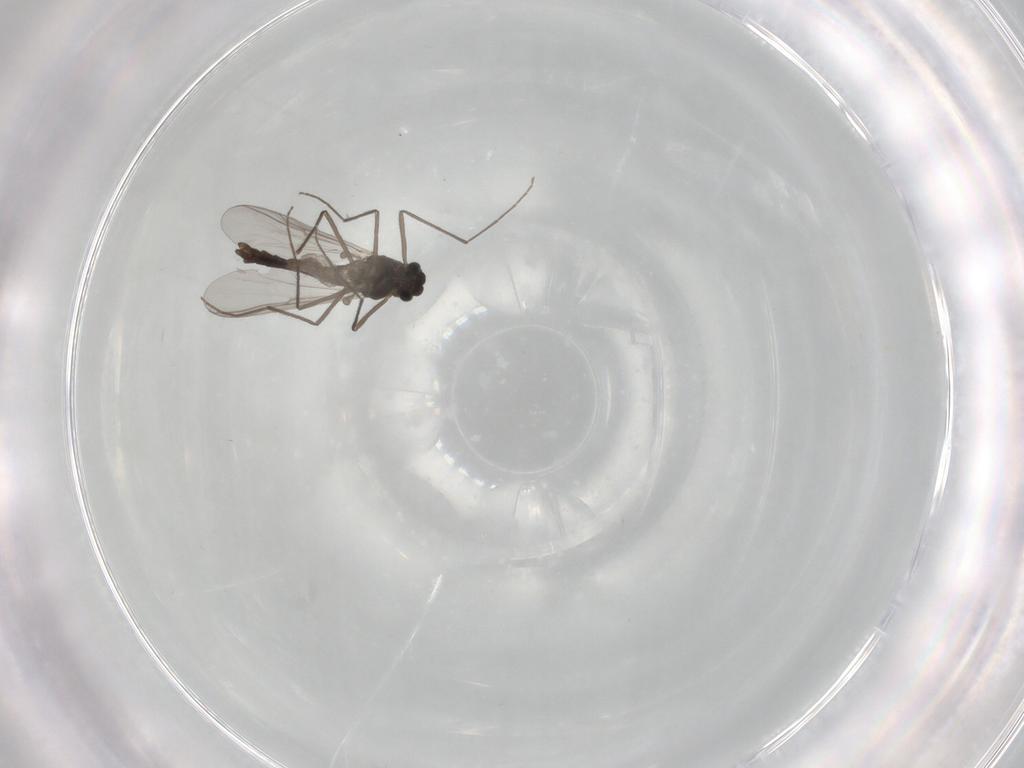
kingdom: Animalia
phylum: Arthropoda
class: Insecta
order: Diptera
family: Chironomidae
